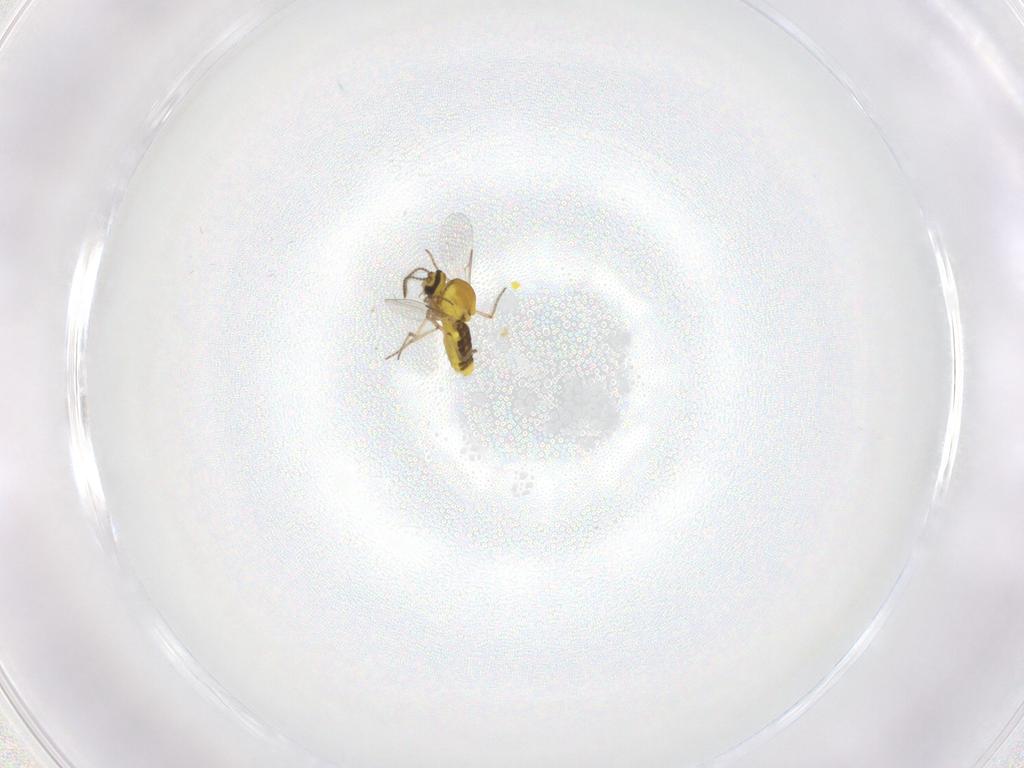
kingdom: Animalia
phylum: Arthropoda
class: Insecta
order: Diptera
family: Ceratopogonidae
